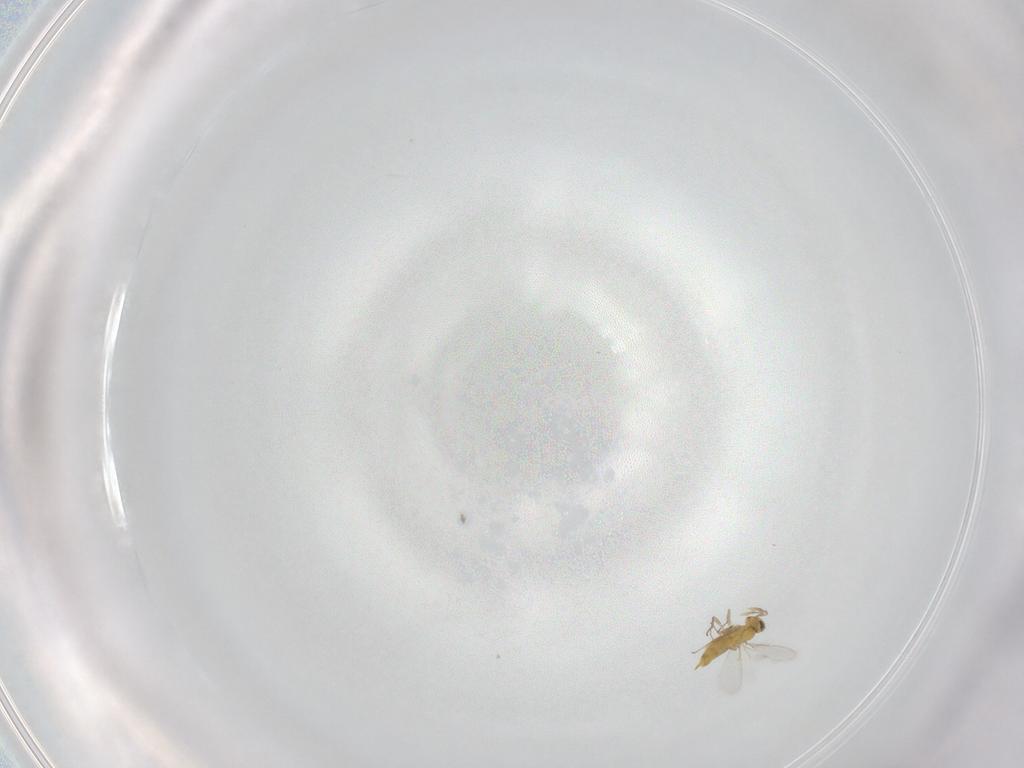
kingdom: Animalia
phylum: Arthropoda
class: Insecta
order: Hymenoptera
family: Aphelinidae
